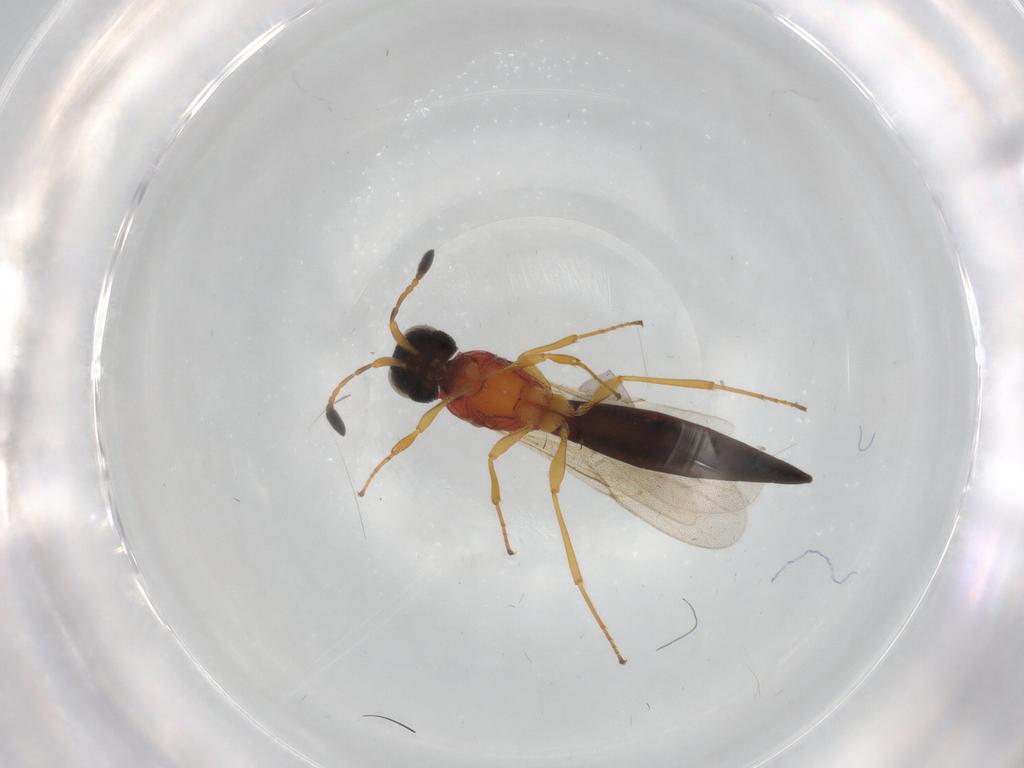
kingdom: Animalia
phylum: Arthropoda
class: Insecta
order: Hymenoptera
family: Scelionidae
